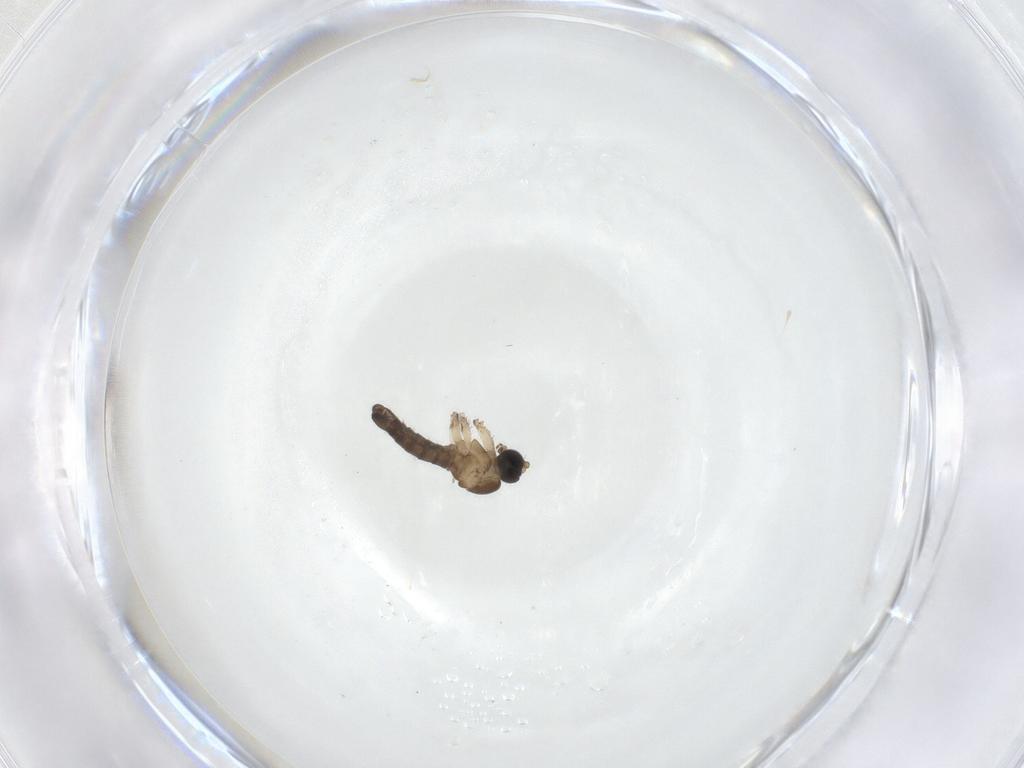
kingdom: Animalia
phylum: Arthropoda
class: Insecta
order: Diptera
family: Sciaridae
